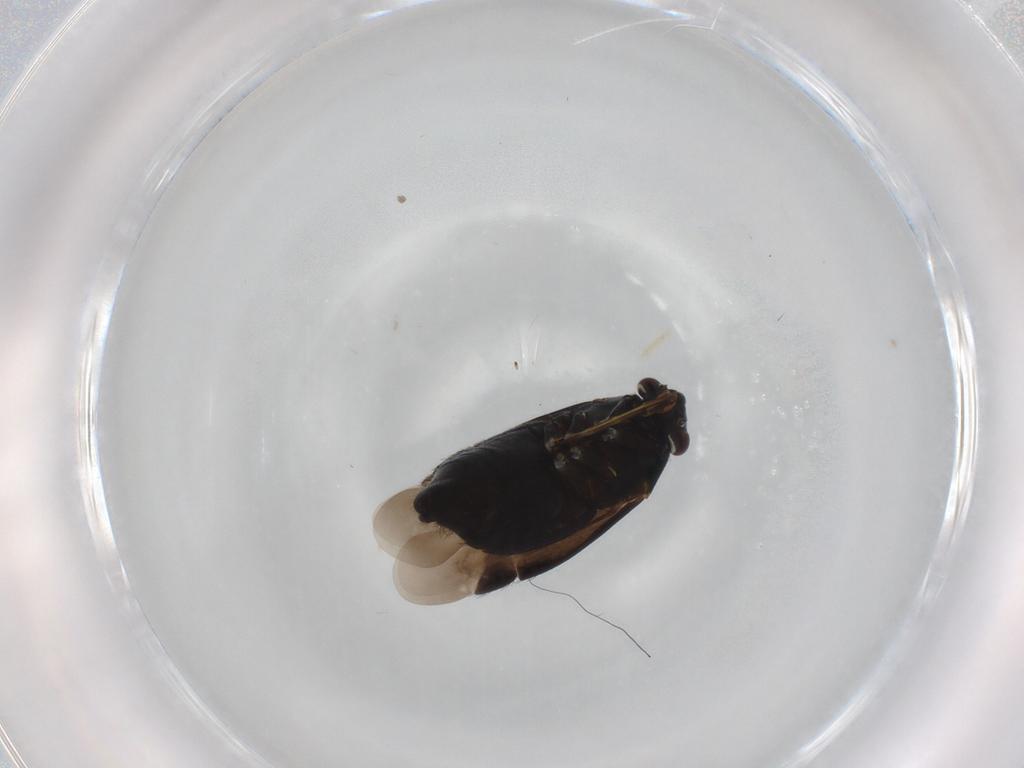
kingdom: Animalia
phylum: Arthropoda
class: Insecta
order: Hemiptera
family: Miridae
